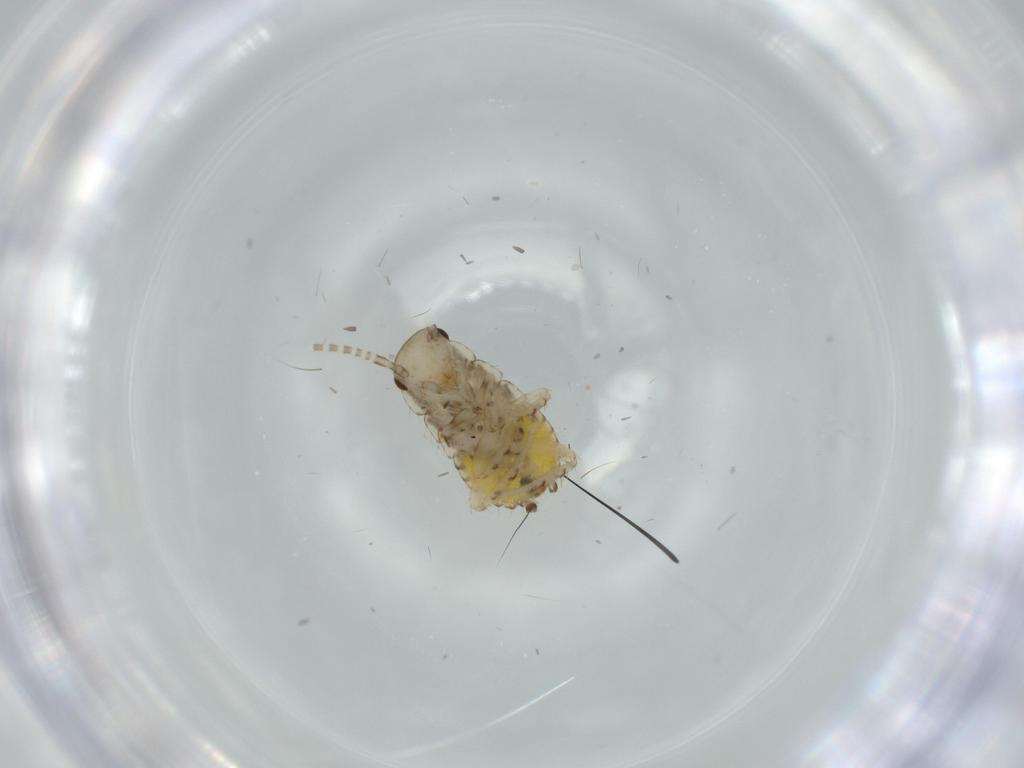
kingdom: Animalia
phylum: Arthropoda
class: Insecta
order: Blattodea
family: Ectobiidae
